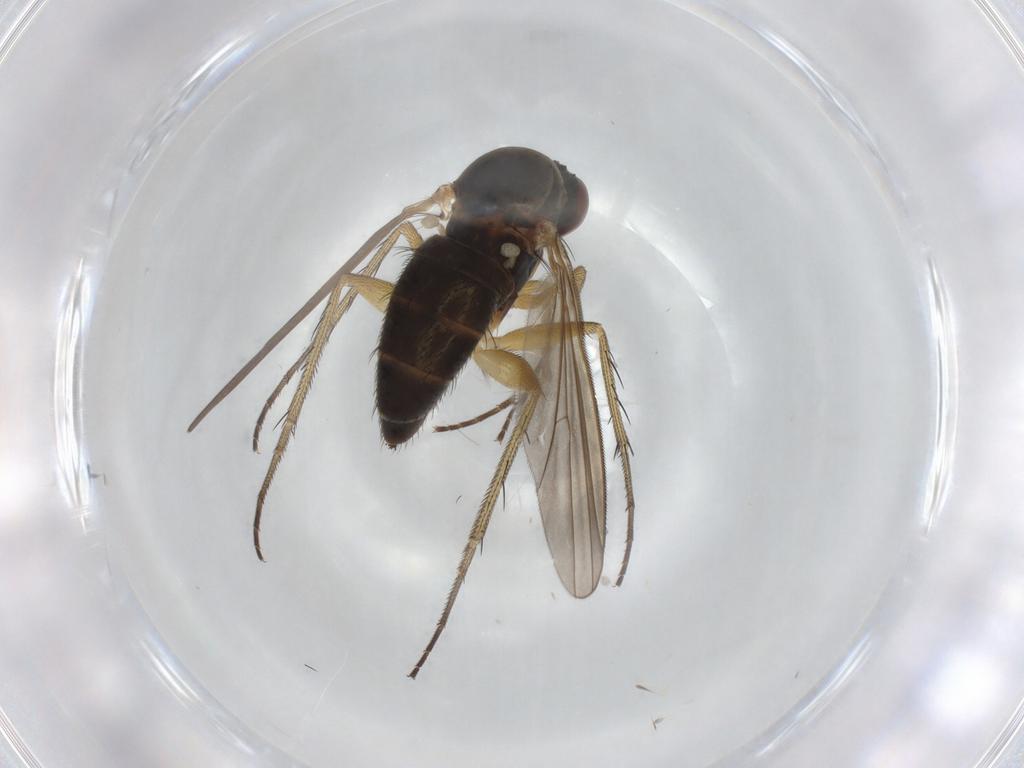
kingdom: Animalia
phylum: Arthropoda
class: Insecta
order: Diptera
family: Dolichopodidae
